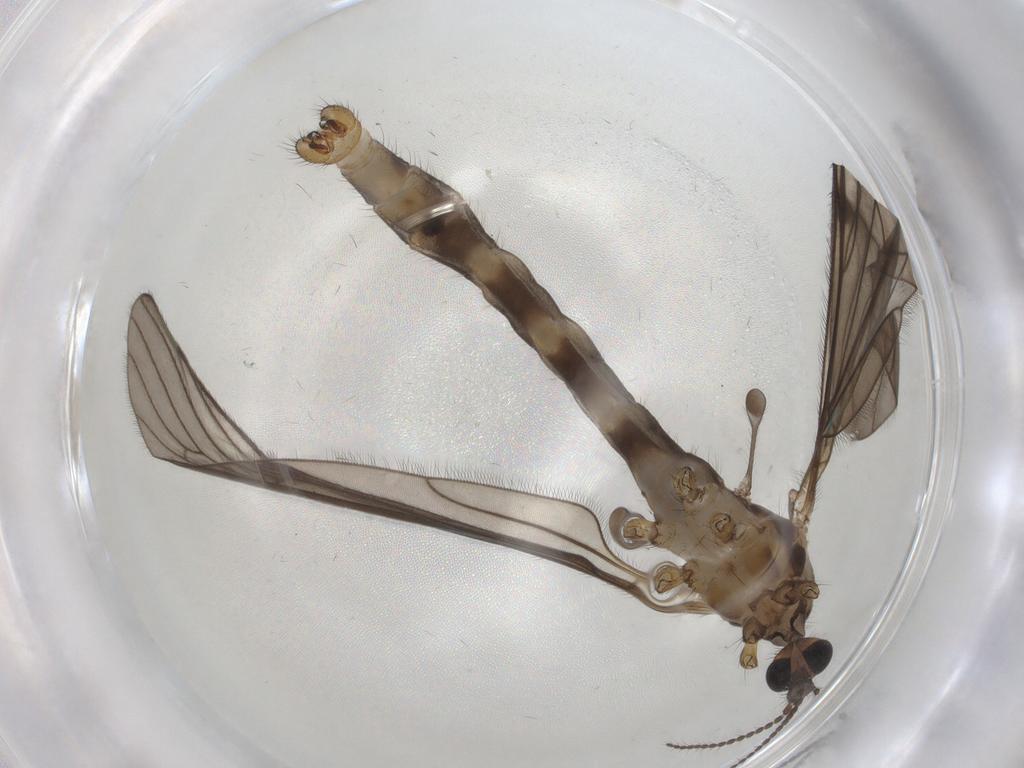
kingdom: Animalia
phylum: Arthropoda
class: Insecta
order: Diptera
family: Limoniidae
